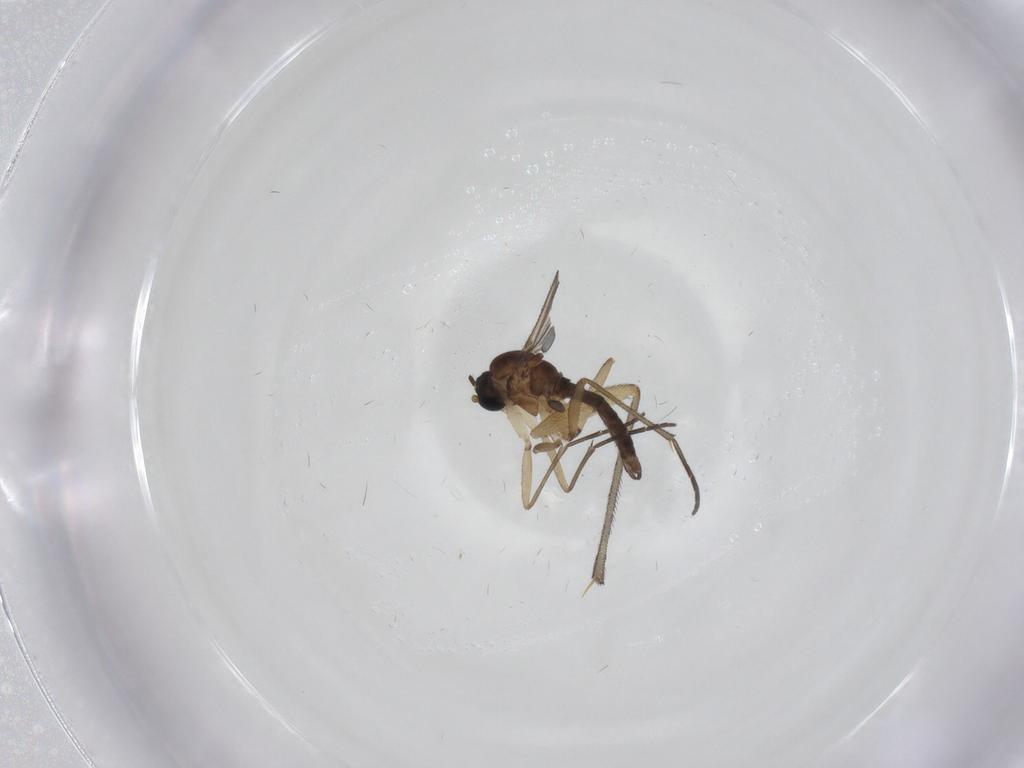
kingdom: Animalia
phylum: Arthropoda
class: Insecta
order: Diptera
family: Sciaridae
